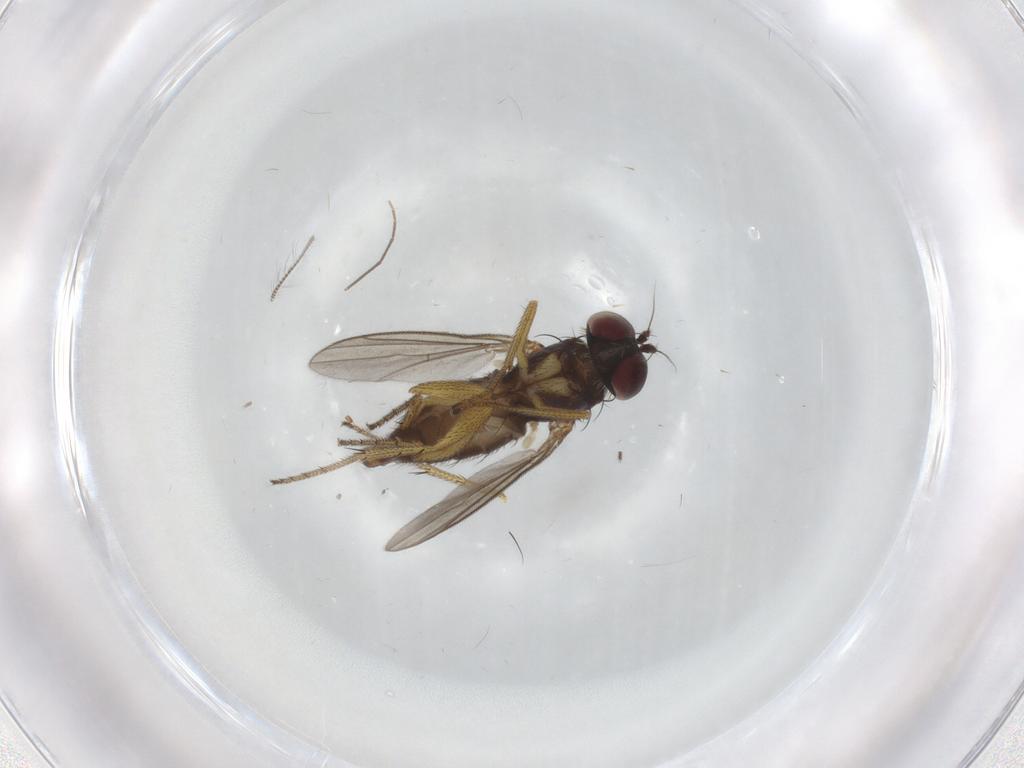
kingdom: Animalia
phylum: Arthropoda
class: Insecta
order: Diptera
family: Chironomidae
